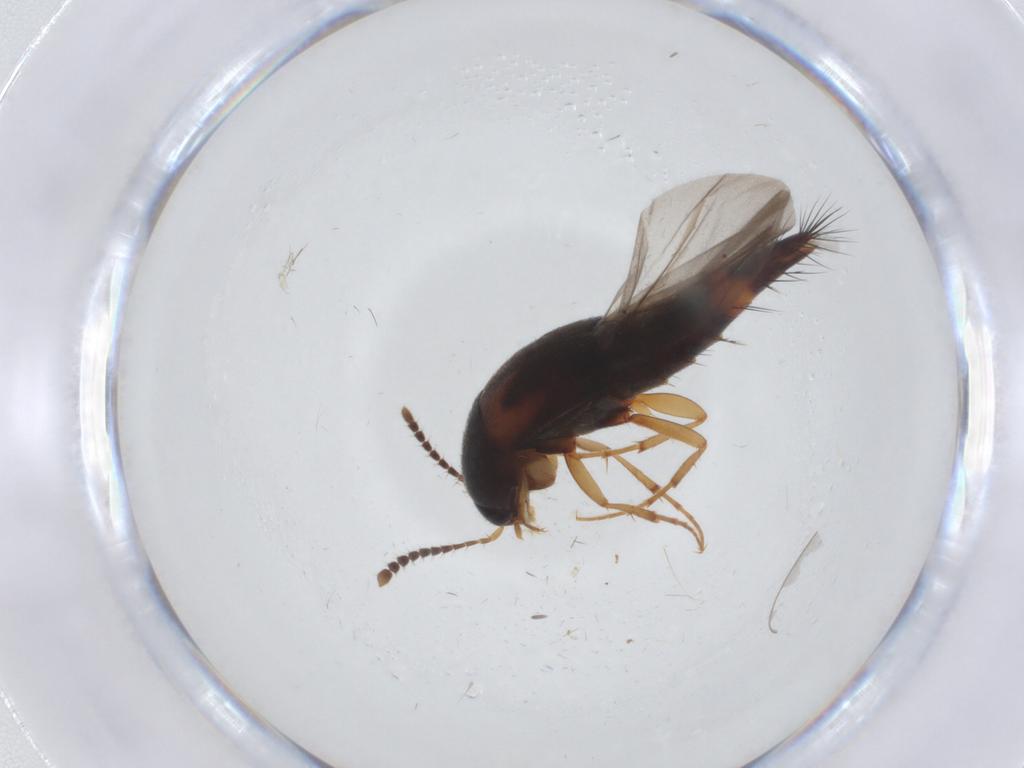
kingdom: Animalia
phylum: Arthropoda
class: Insecta
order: Coleoptera
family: Staphylinidae
